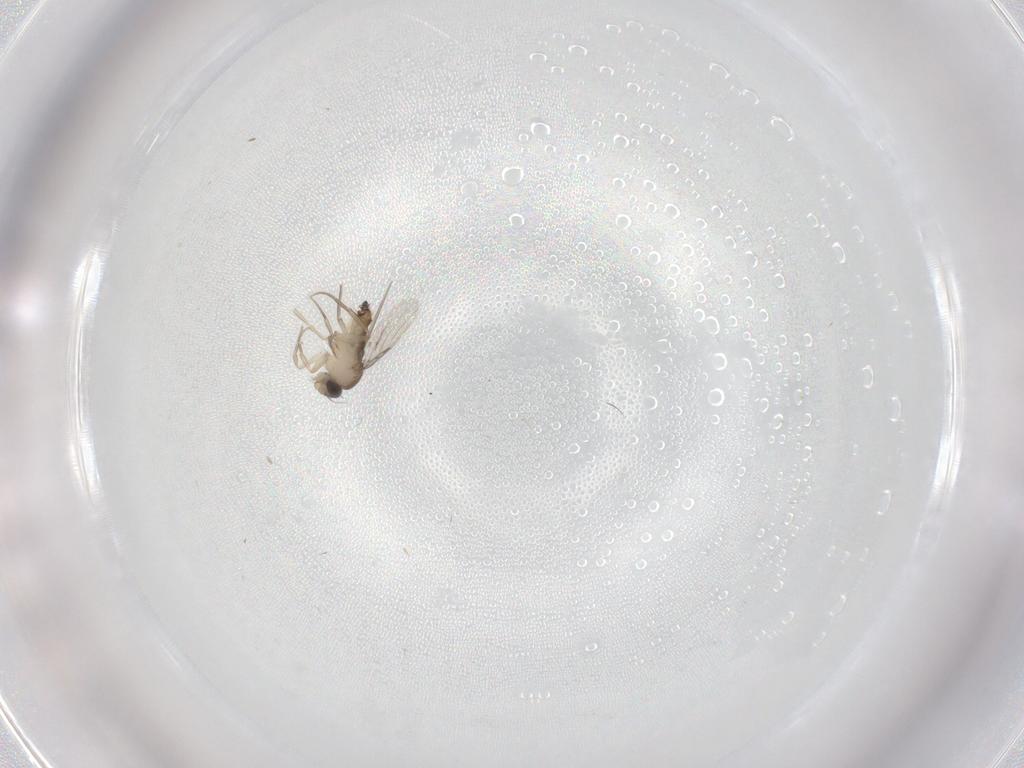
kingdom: Animalia
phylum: Arthropoda
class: Insecta
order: Diptera
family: Phoridae
